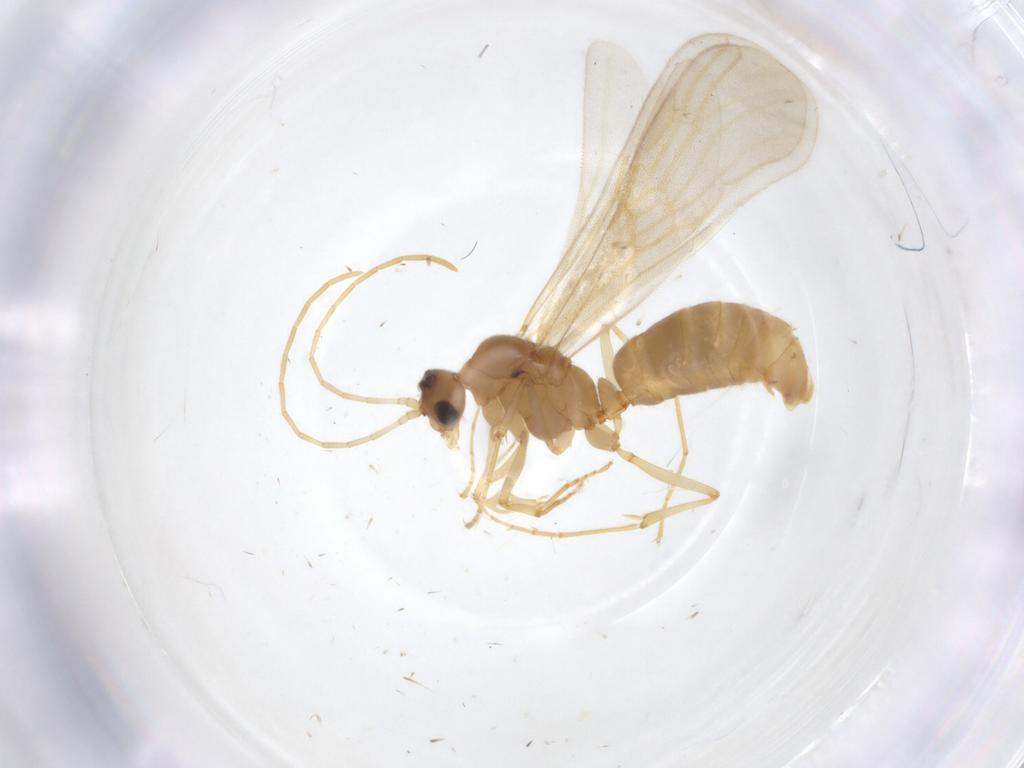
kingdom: Animalia
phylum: Arthropoda
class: Insecta
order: Hymenoptera
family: Formicidae
